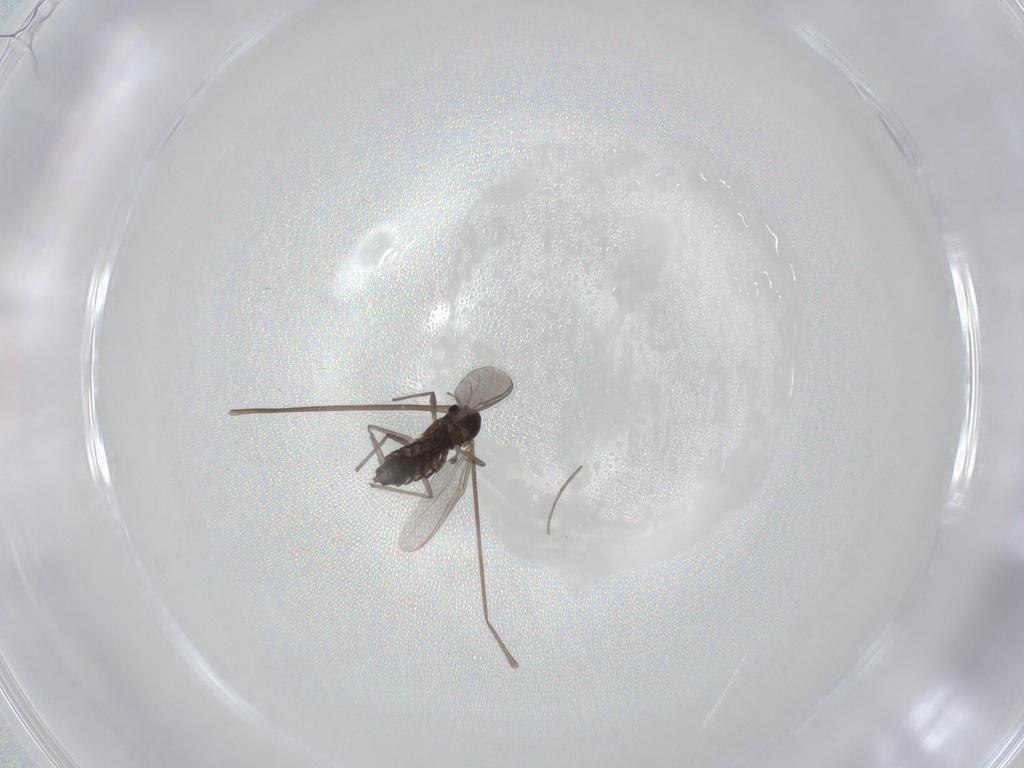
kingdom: Animalia
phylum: Arthropoda
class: Insecta
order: Diptera
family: Chironomidae
